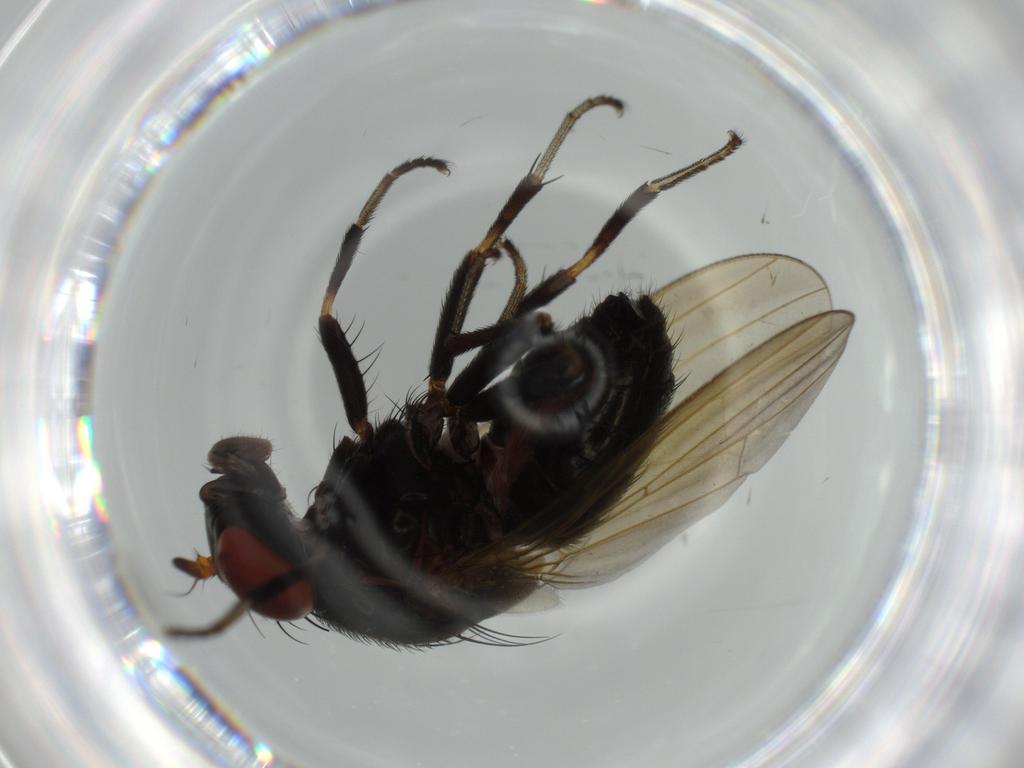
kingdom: Animalia
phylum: Arthropoda
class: Insecta
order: Diptera
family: Lauxaniidae
